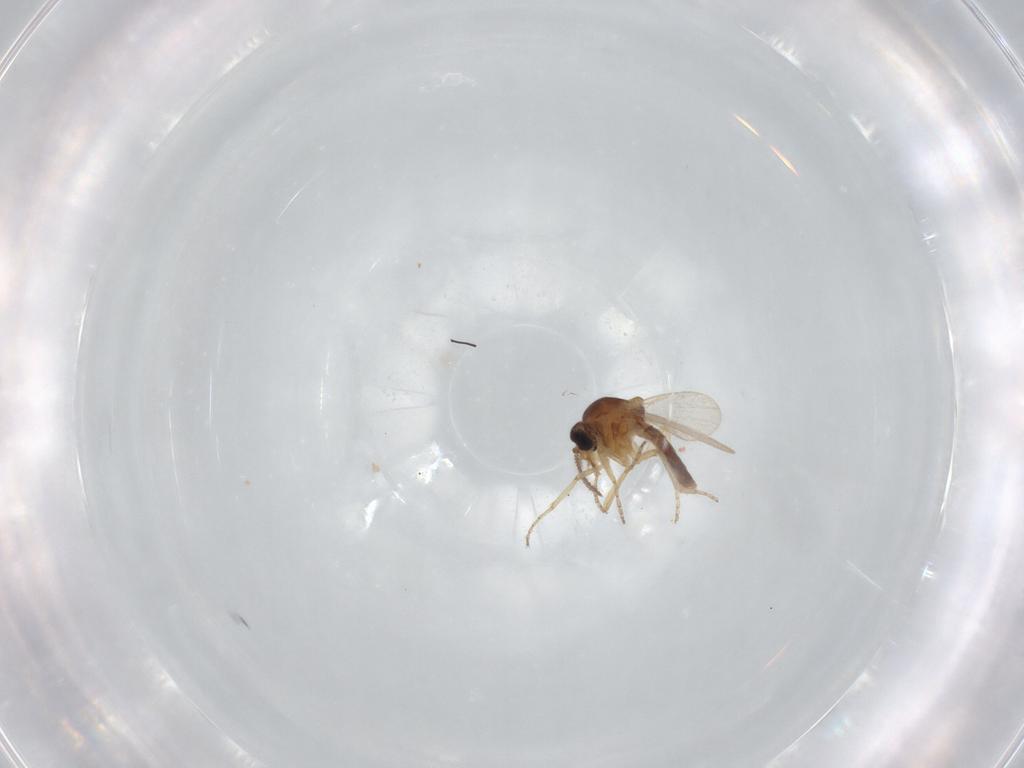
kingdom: Animalia
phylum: Arthropoda
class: Insecta
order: Diptera
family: Ceratopogonidae
